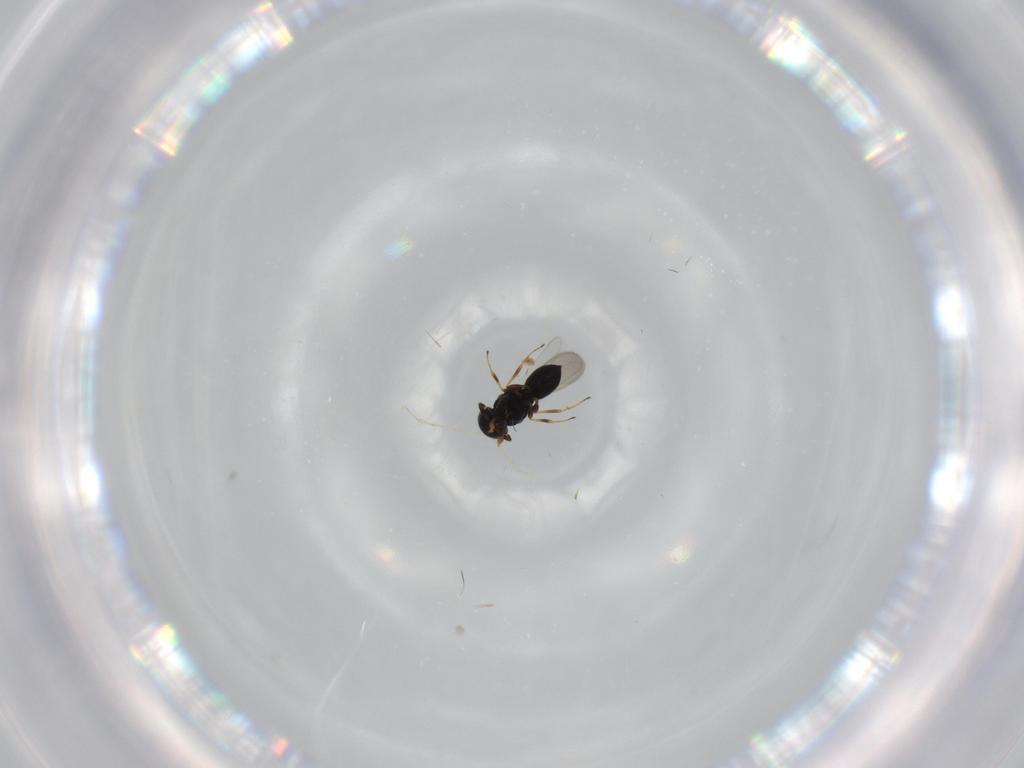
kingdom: Animalia
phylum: Arthropoda
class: Insecta
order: Hymenoptera
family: Scelionidae
